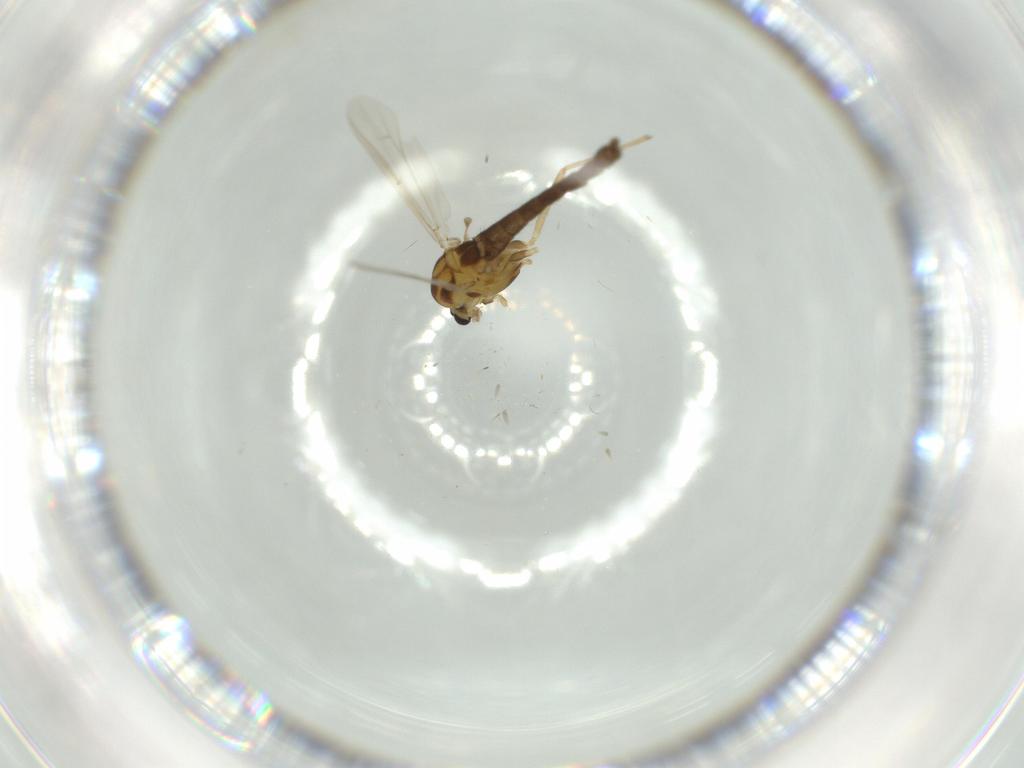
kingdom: Animalia
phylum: Arthropoda
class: Insecta
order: Diptera
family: Chironomidae
